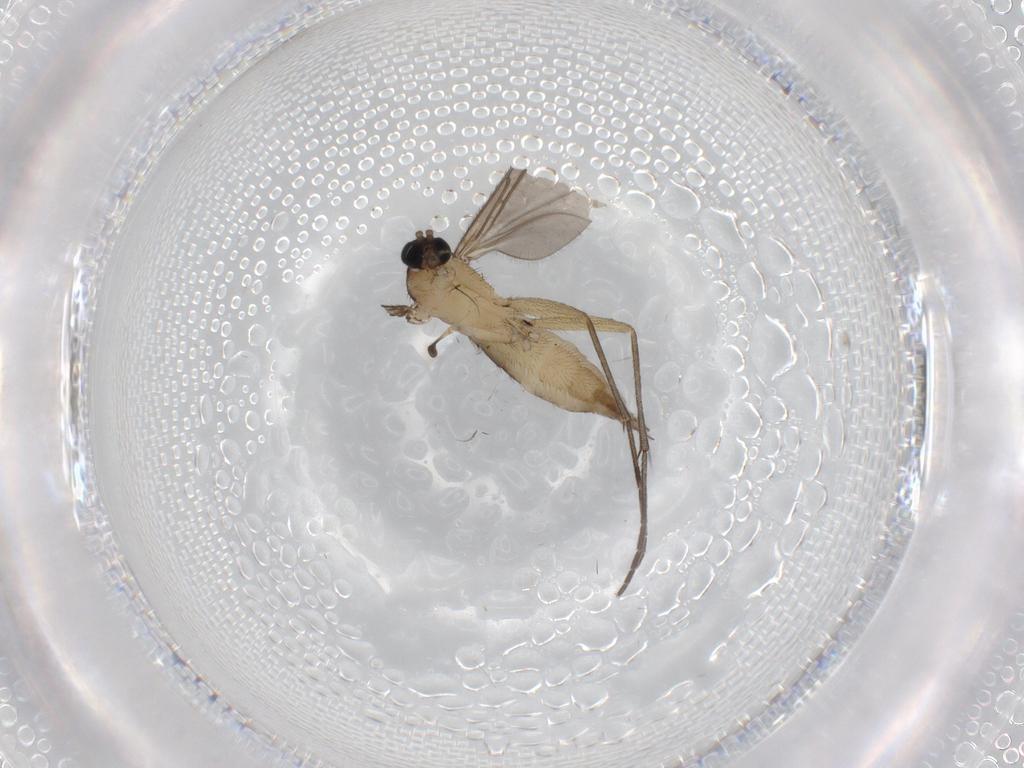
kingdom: Animalia
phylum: Arthropoda
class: Insecta
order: Diptera
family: Sciaridae
